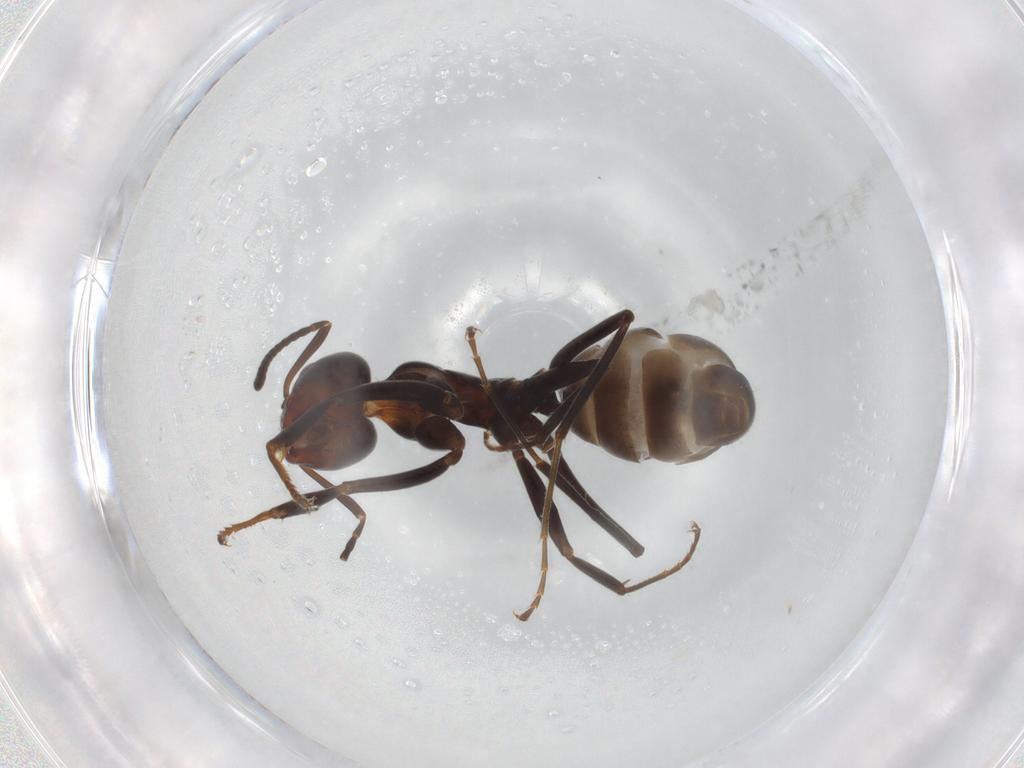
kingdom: Animalia
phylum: Arthropoda
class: Insecta
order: Hymenoptera
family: Formicidae
